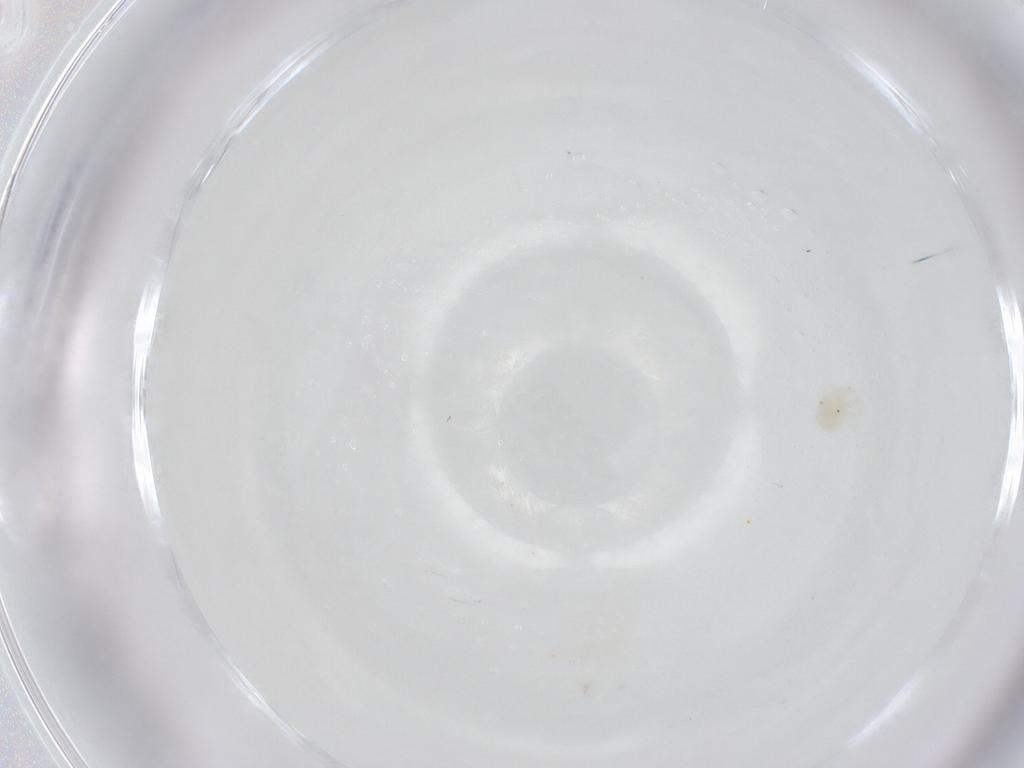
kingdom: Animalia
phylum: Arthropoda
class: Arachnida
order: Trombidiformes
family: Anystidae
